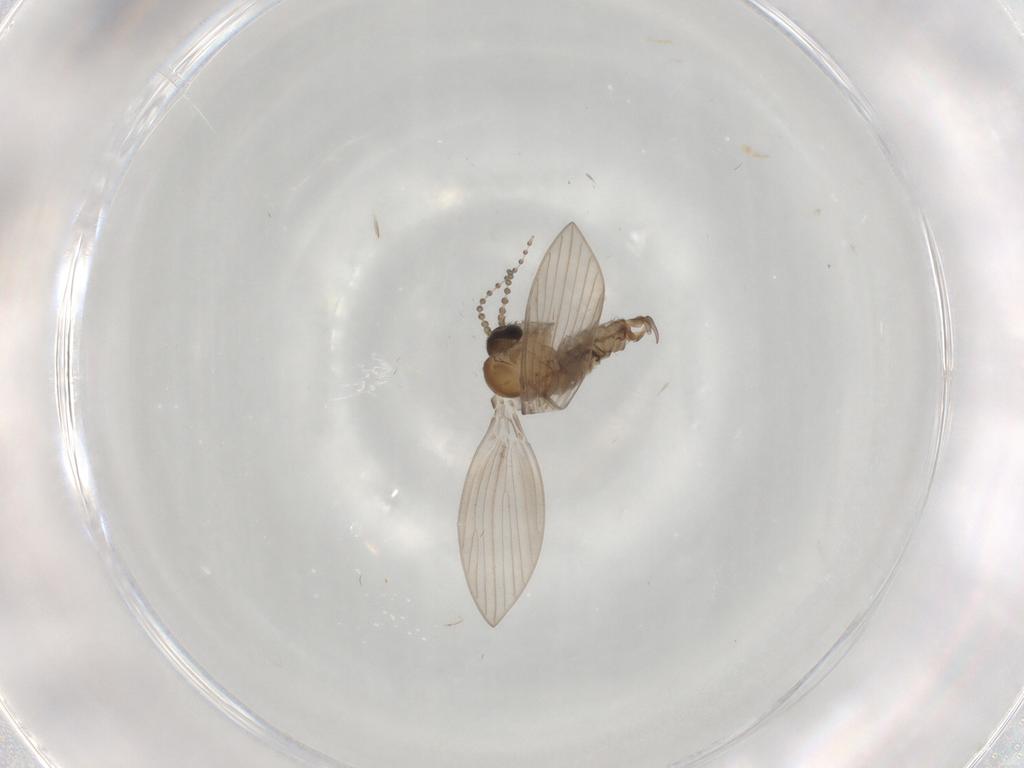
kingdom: Animalia
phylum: Arthropoda
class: Insecta
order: Diptera
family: Psychodidae
